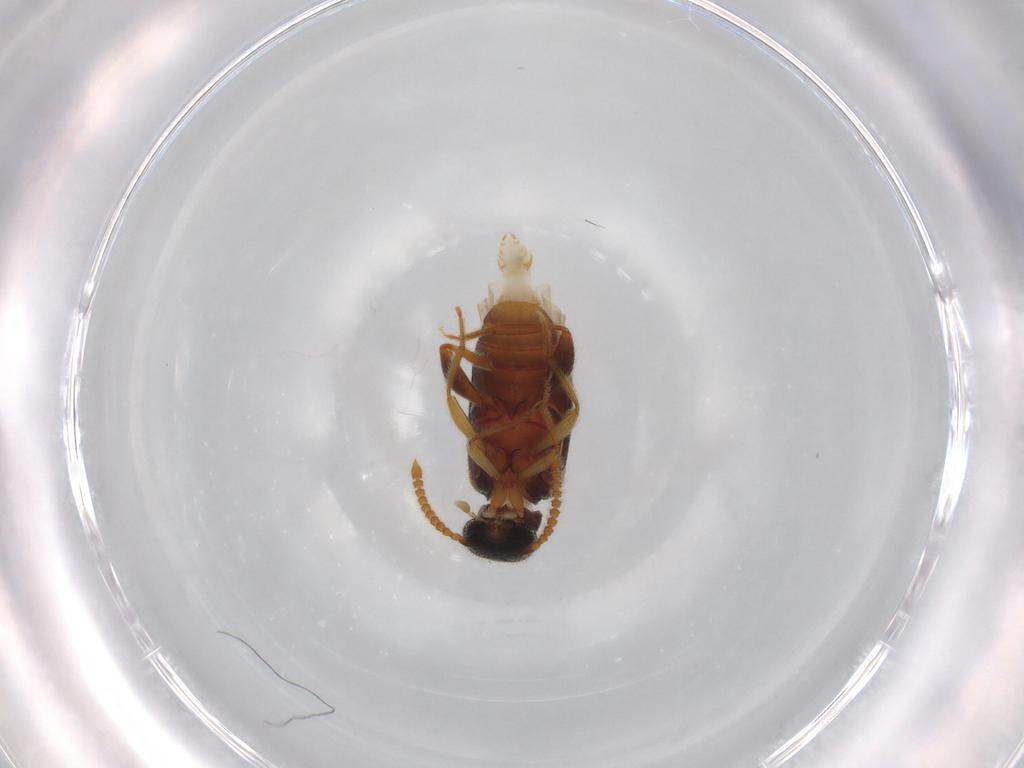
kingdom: Animalia
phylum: Arthropoda
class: Insecta
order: Coleoptera
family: Aderidae
